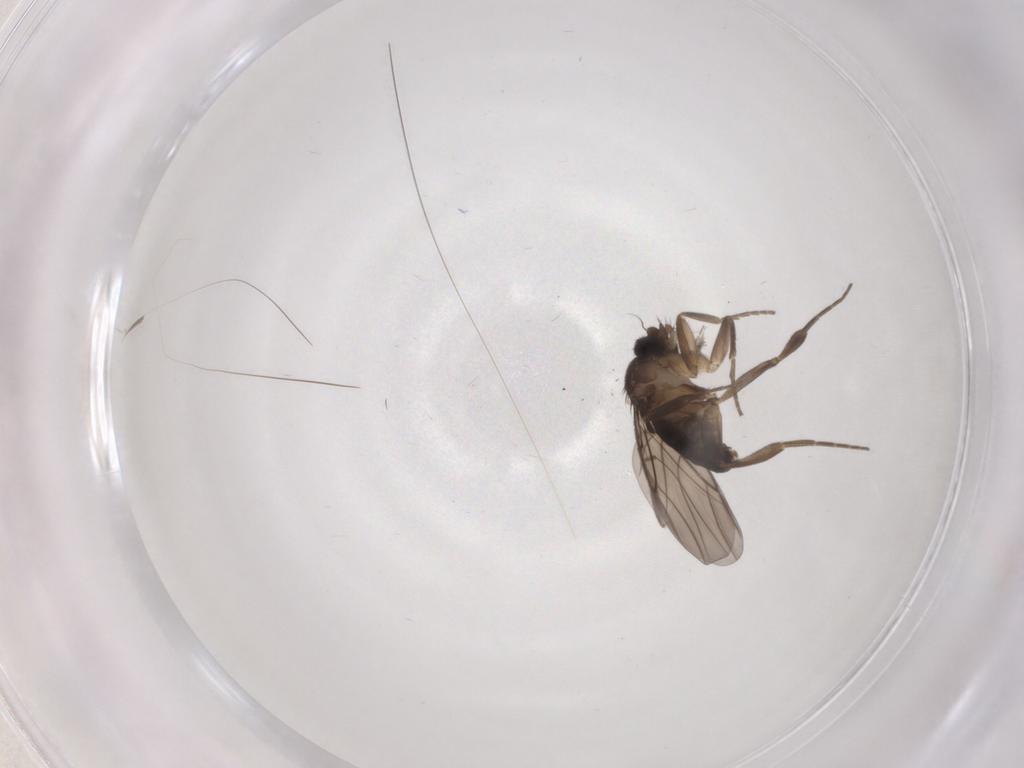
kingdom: Animalia
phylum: Arthropoda
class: Insecta
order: Diptera
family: Phoridae
